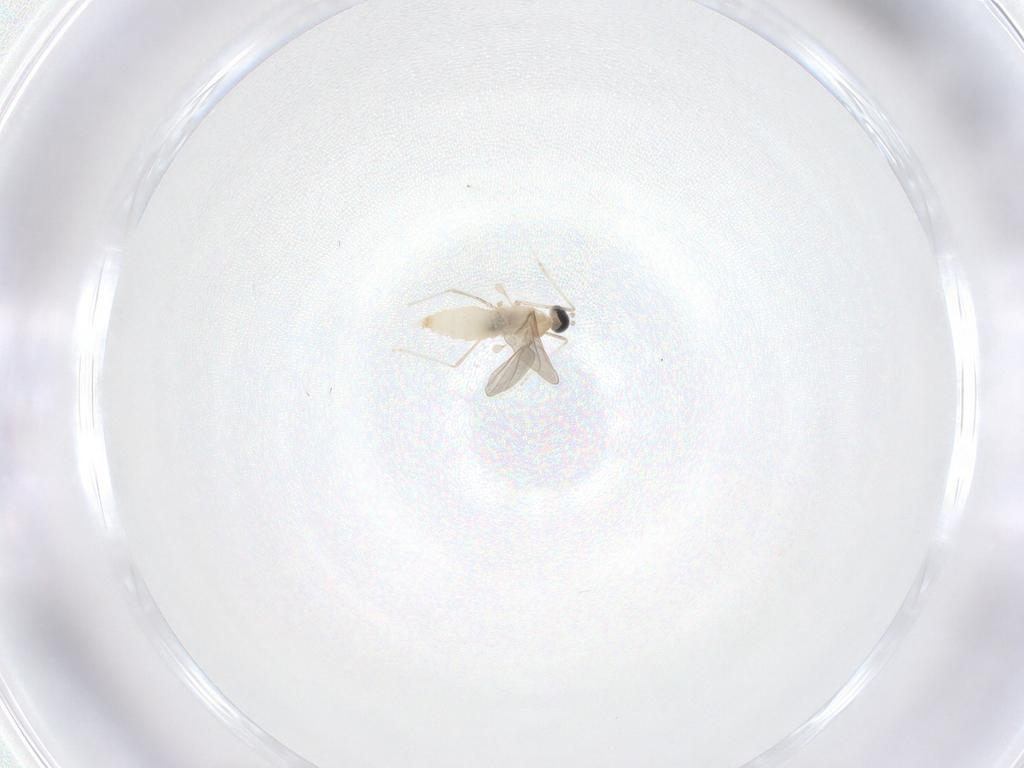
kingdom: Animalia
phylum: Arthropoda
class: Insecta
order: Diptera
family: Cecidomyiidae
